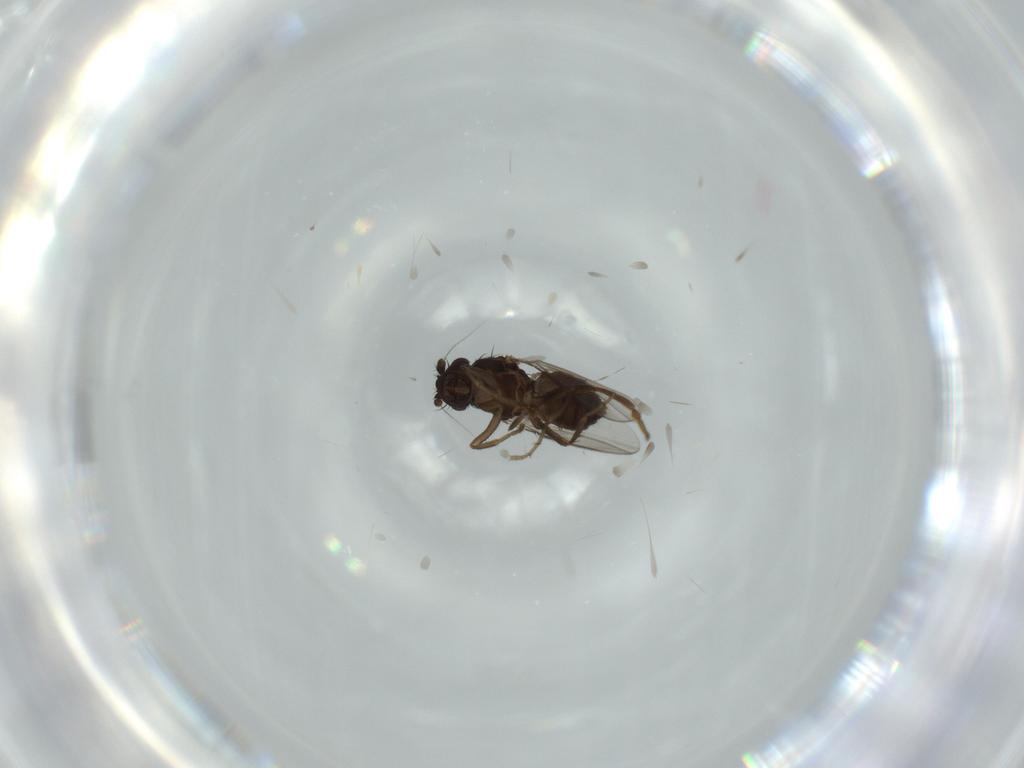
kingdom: Animalia
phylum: Arthropoda
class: Insecta
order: Diptera
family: Sphaeroceridae
